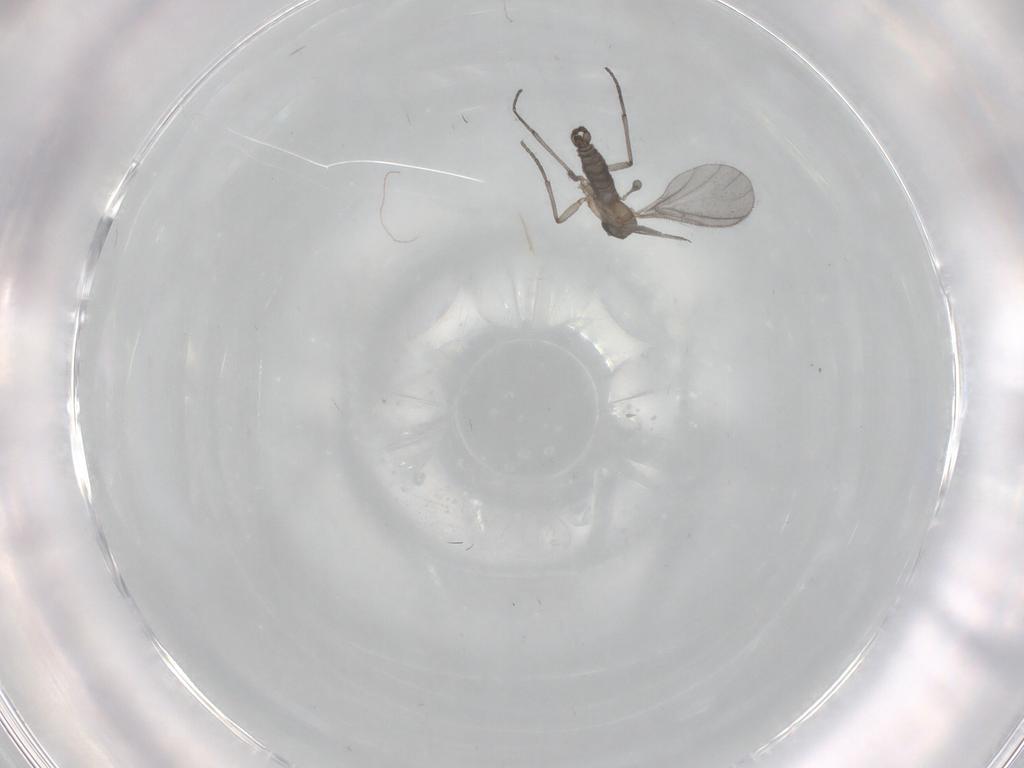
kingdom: Animalia
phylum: Arthropoda
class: Insecta
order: Diptera
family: Sciaridae
